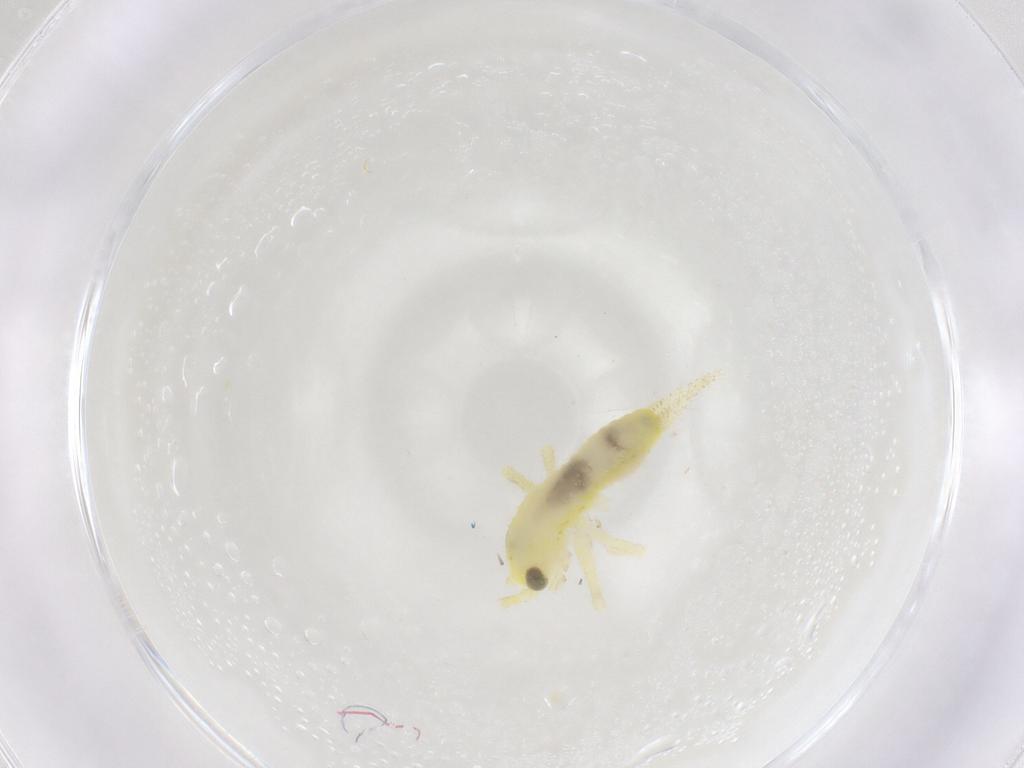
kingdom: Animalia
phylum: Arthropoda
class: Insecta
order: Orthoptera
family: Trigonidiidae
